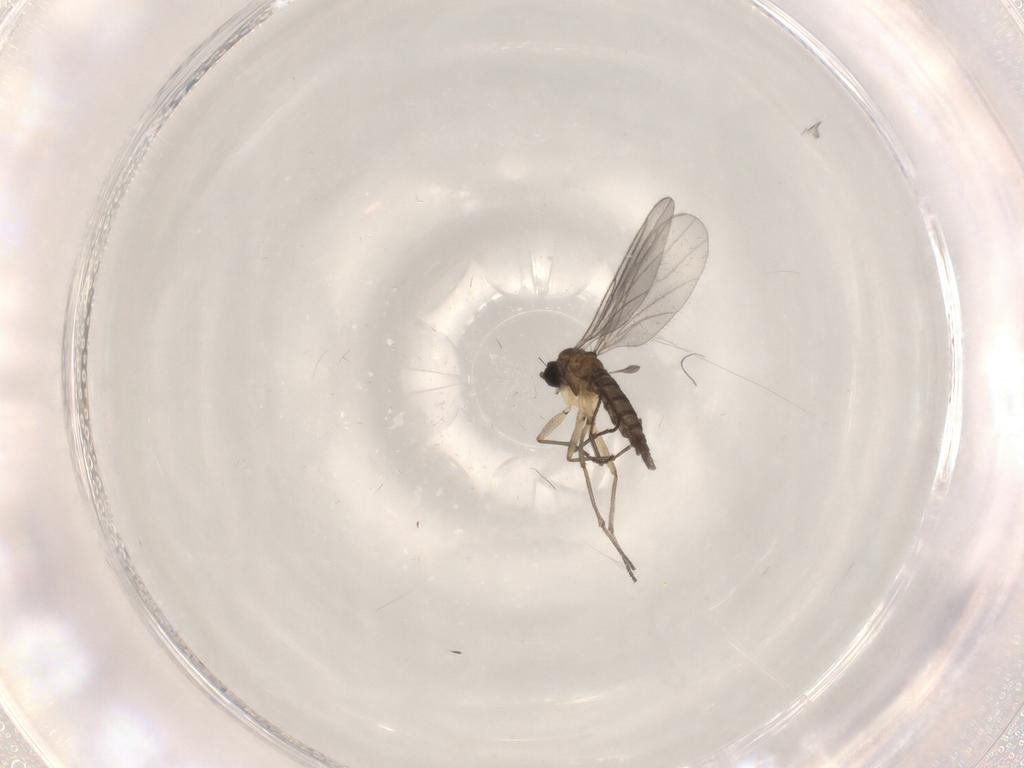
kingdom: Animalia
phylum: Arthropoda
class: Insecta
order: Diptera
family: Sciaridae
